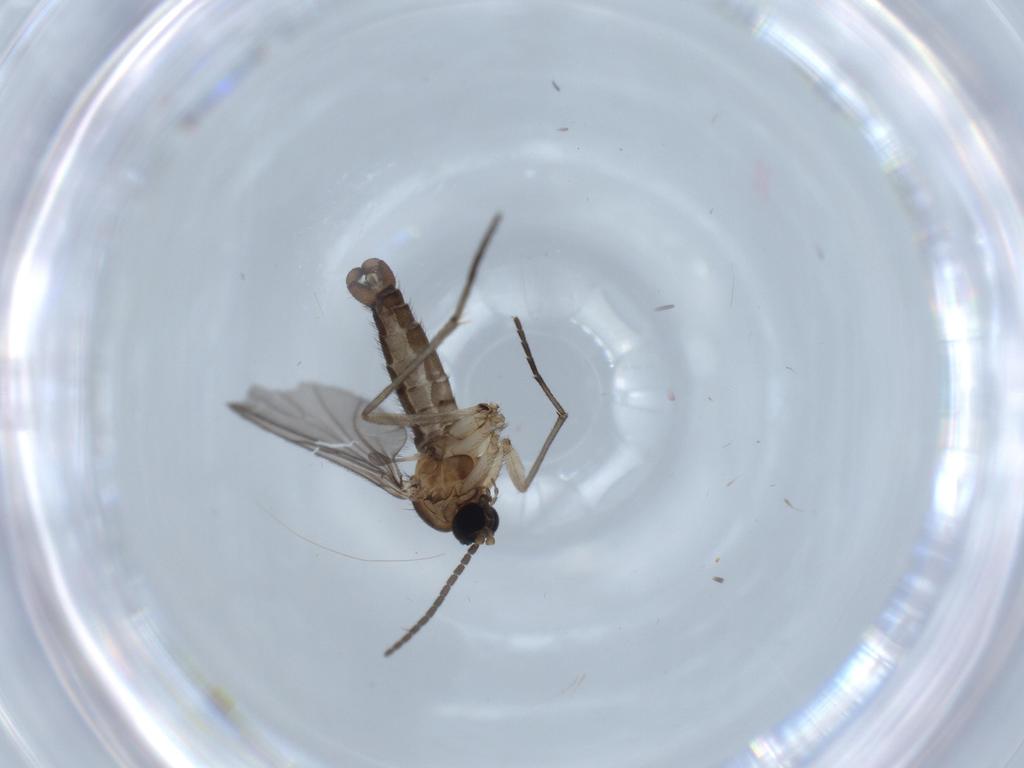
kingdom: Animalia
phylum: Arthropoda
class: Insecta
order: Diptera
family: Sciaridae
